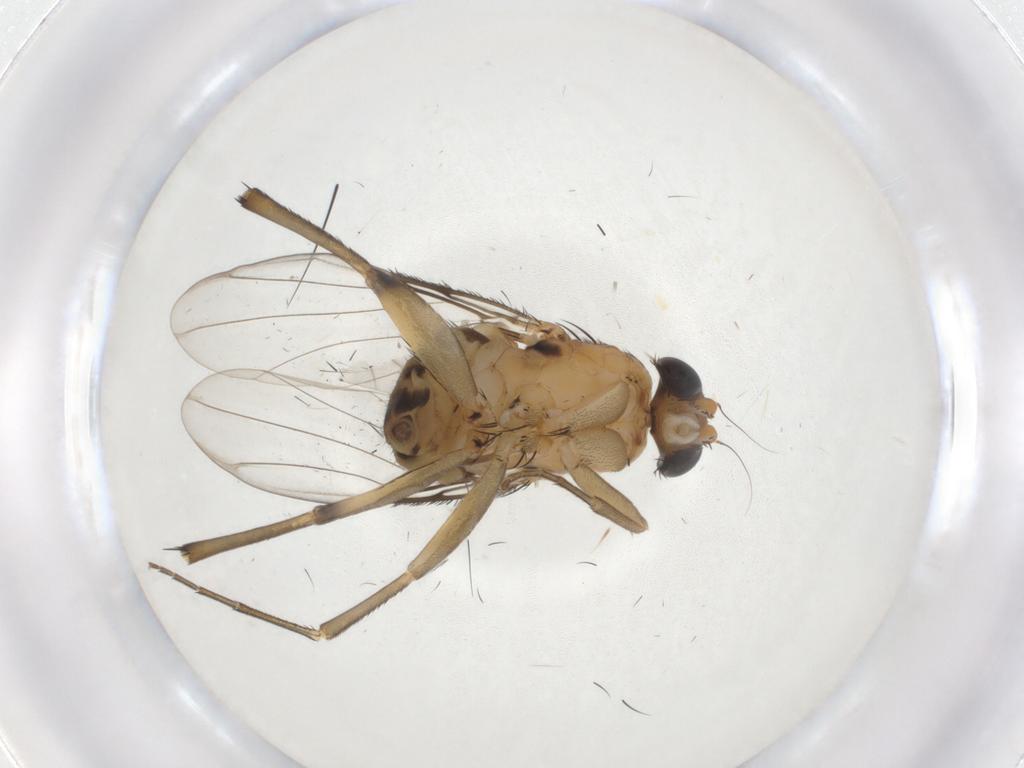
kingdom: Animalia
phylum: Arthropoda
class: Insecta
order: Diptera
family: Phoridae
